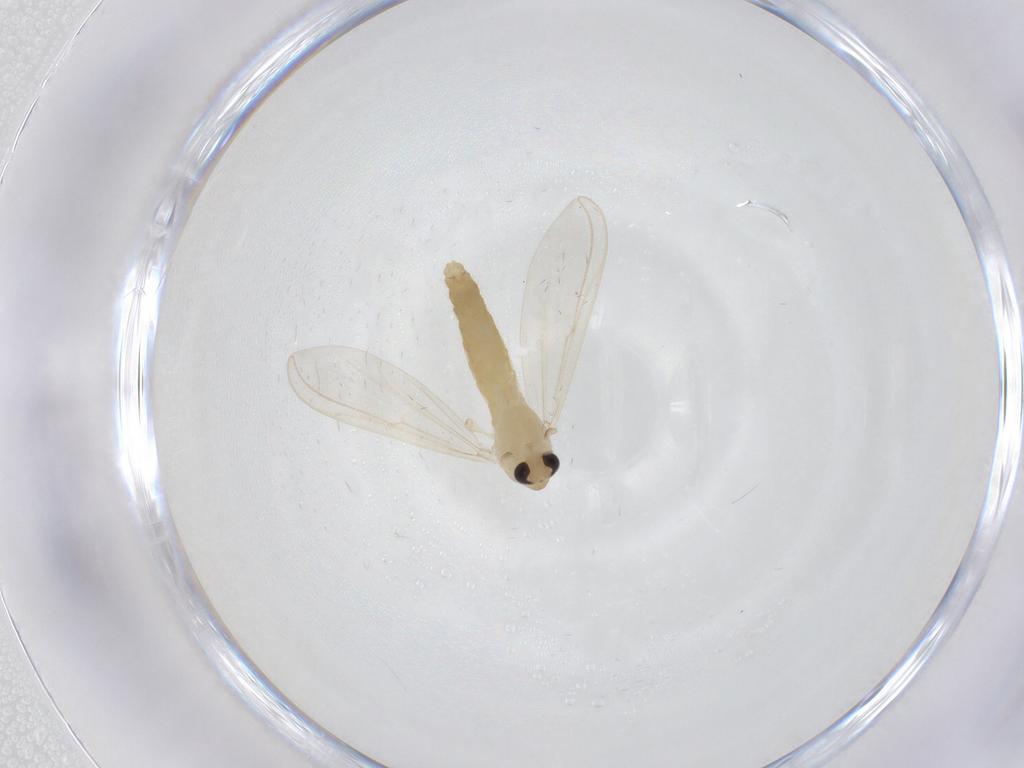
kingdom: Animalia
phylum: Arthropoda
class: Insecta
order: Diptera
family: Chironomidae
